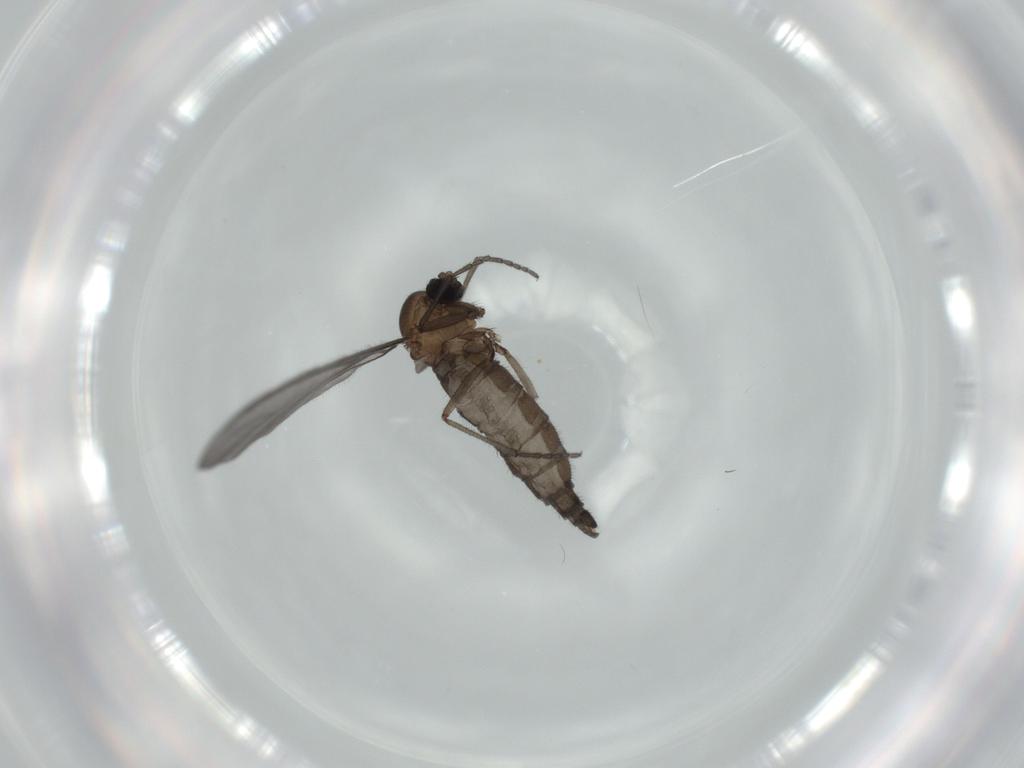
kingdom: Animalia
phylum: Arthropoda
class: Insecta
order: Diptera
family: Sciaridae
